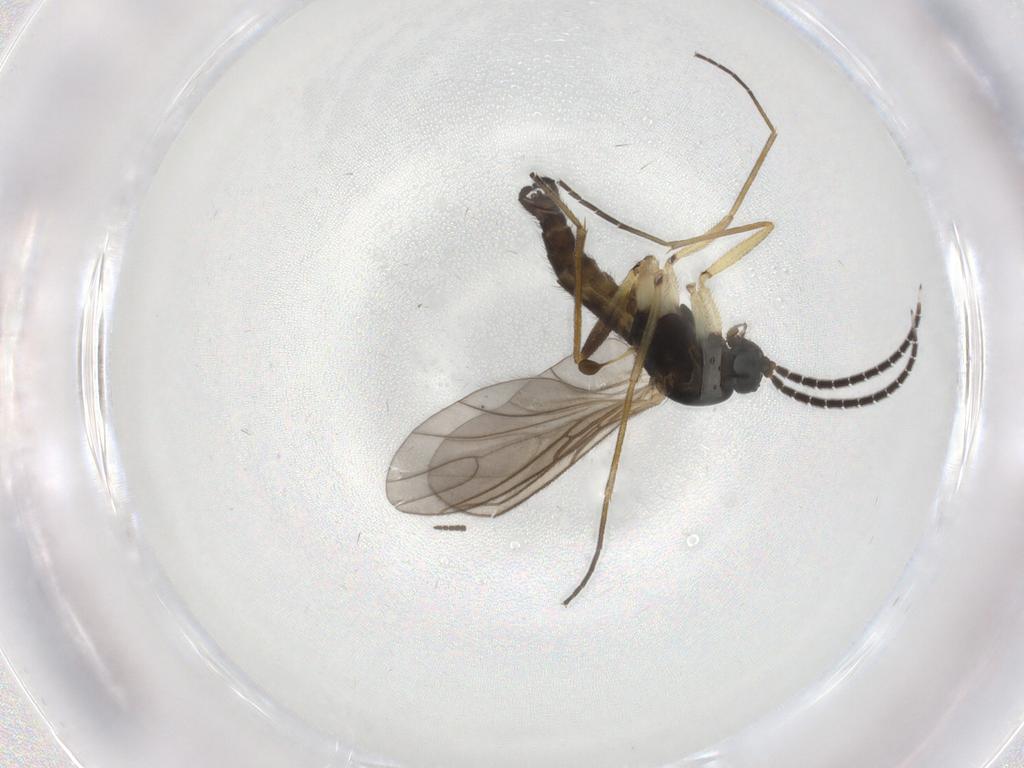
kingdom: Animalia
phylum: Arthropoda
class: Insecta
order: Diptera
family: Sciaridae
